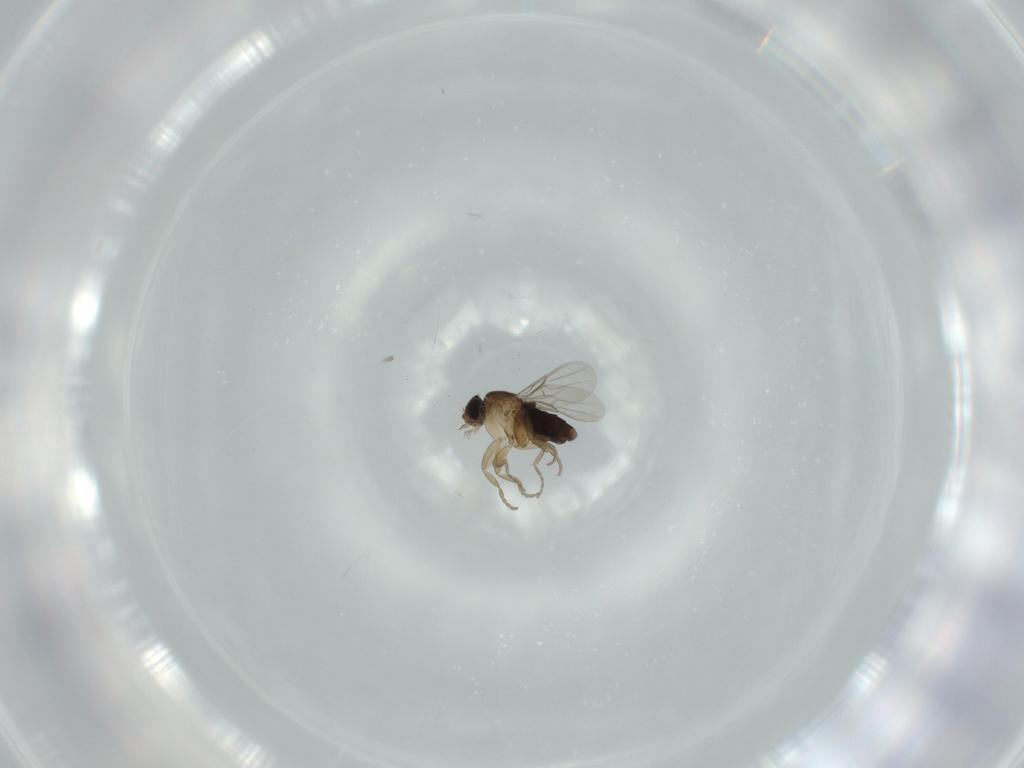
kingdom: Animalia
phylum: Arthropoda
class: Insecta
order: Diptera
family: Phoridae
